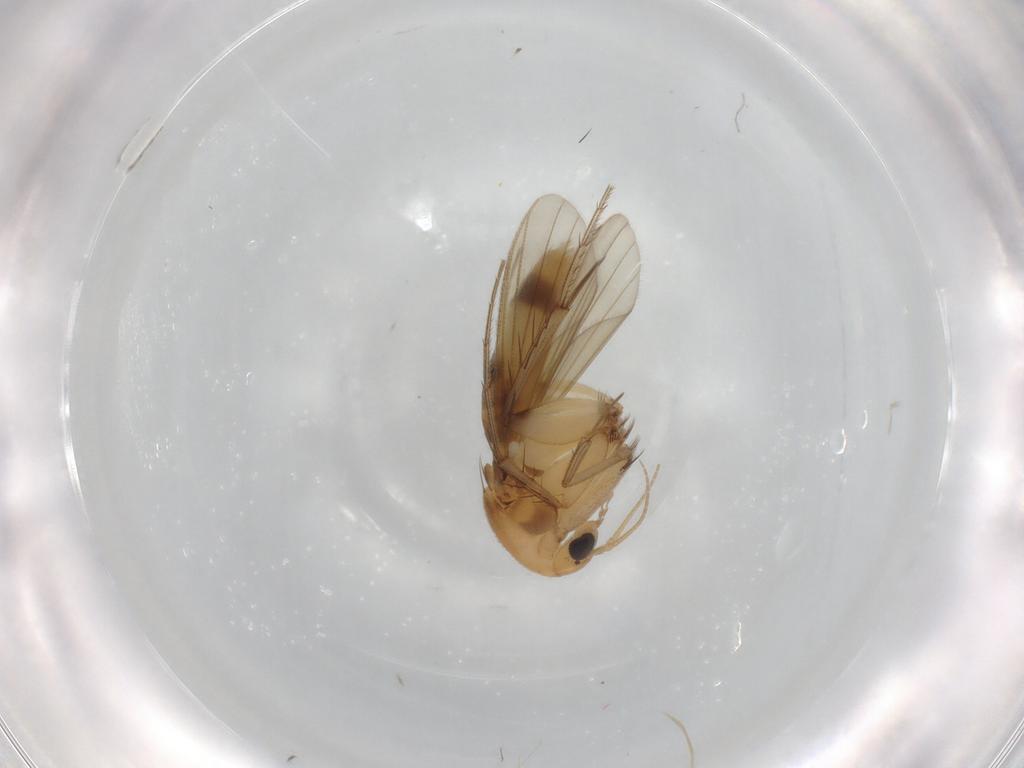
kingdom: Animalia
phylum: Arthropoda
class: Insecta
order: Diptera
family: Mycetophilidae
